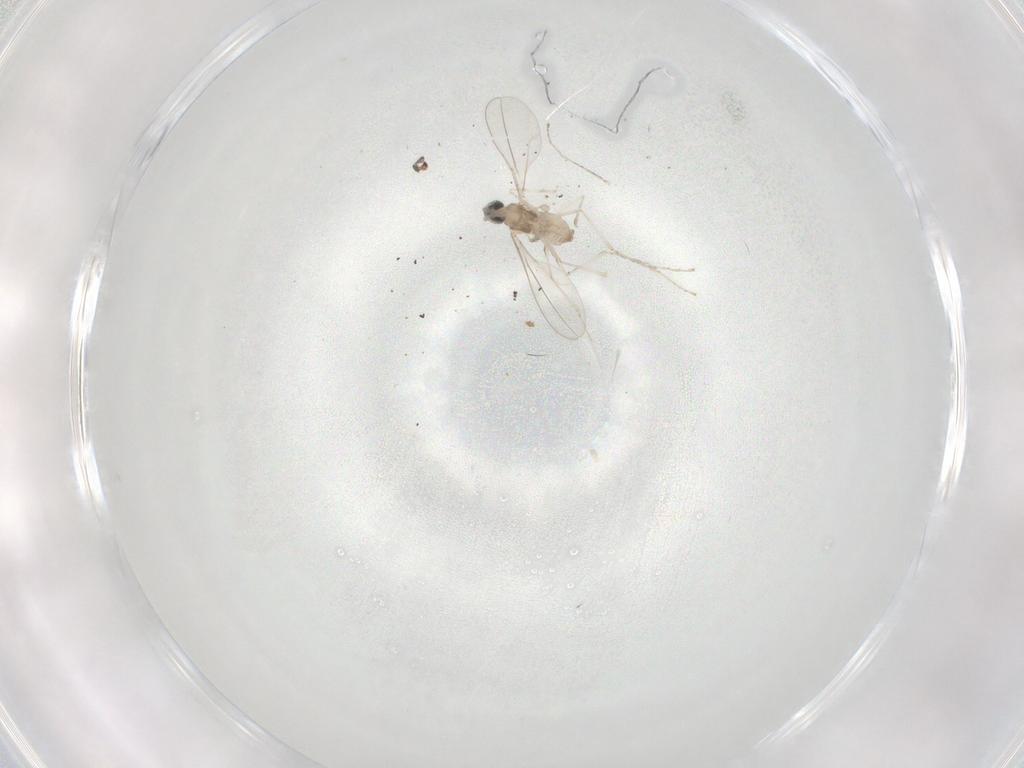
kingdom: Animalia
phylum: Arthropoda
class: Insecta
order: Diptera
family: Cecidomyiidae
